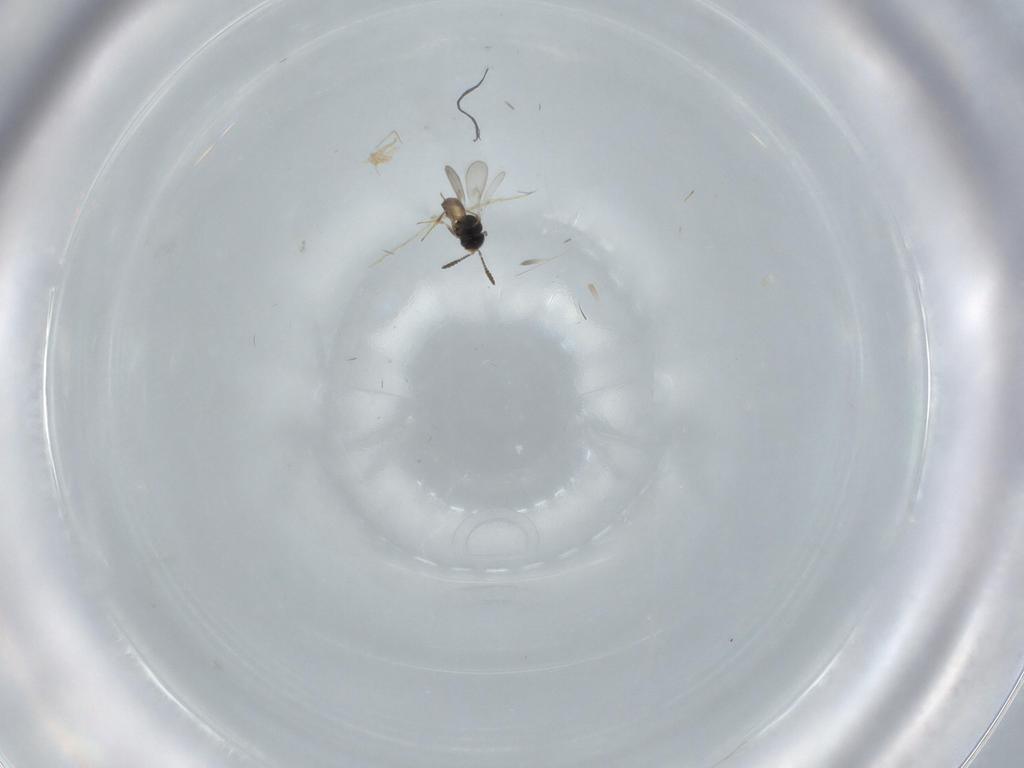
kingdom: Animalia
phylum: Arthropoda
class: Insecta
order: Hymenoptera
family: Scelionidae
